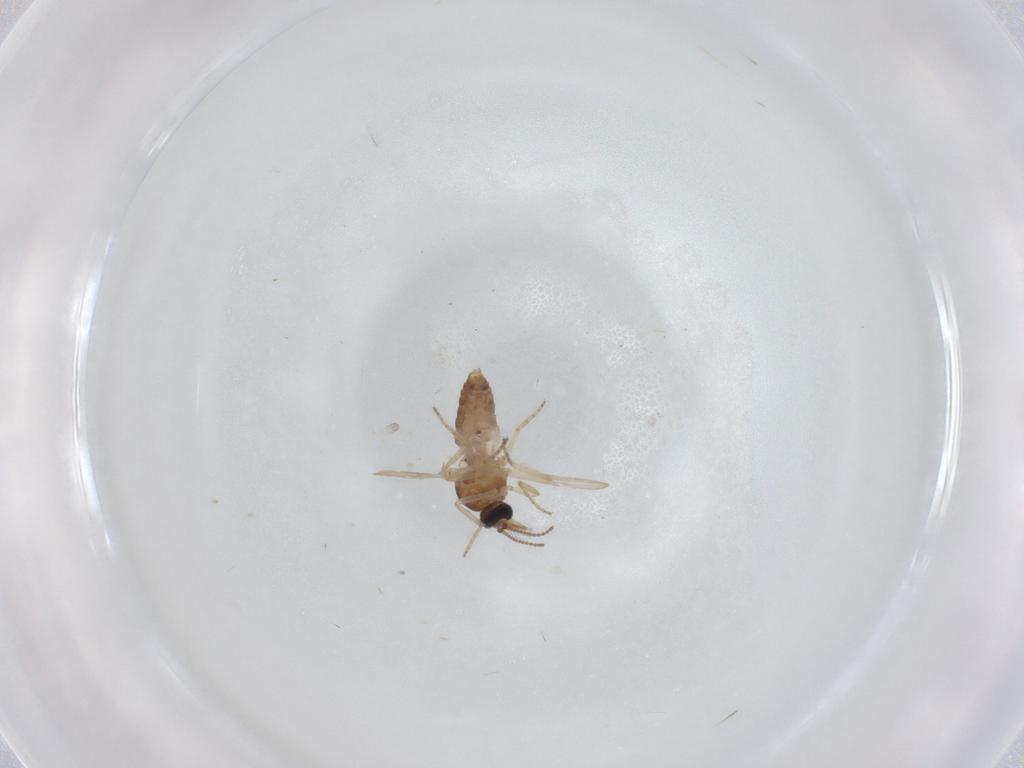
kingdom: Animalia
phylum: Arthropoda
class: Insecta
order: Diptera
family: Ceratopogonidae
